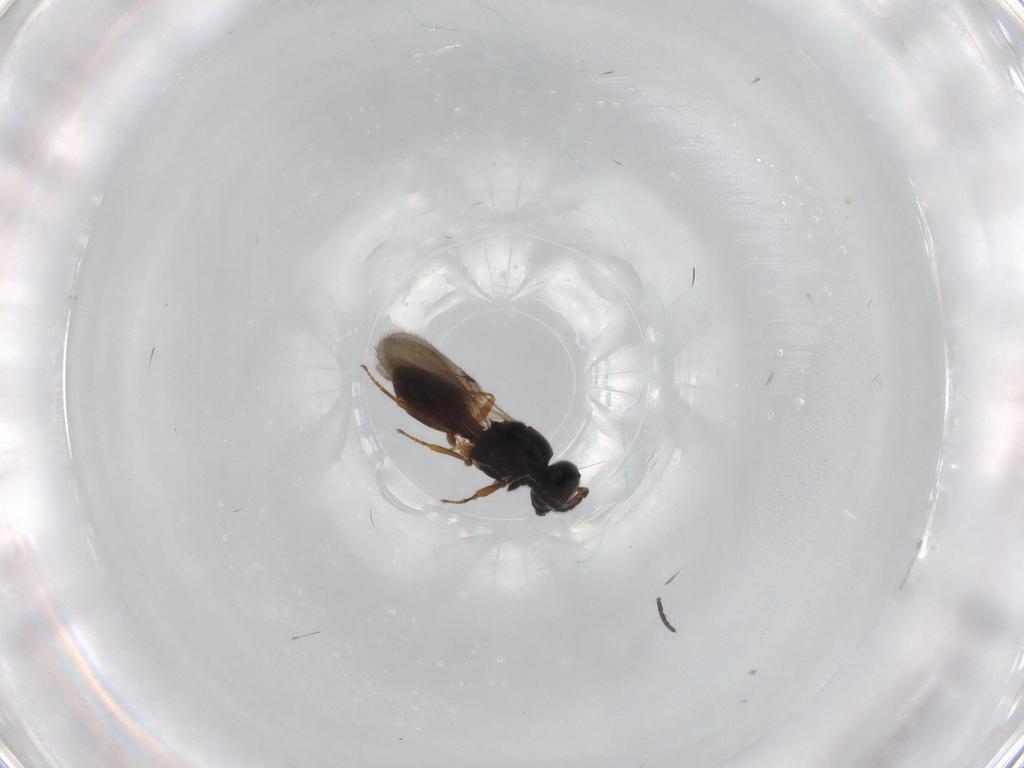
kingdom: Animalia
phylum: Arthropoda
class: Insecta
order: Hymenoptera
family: Scelionidae
